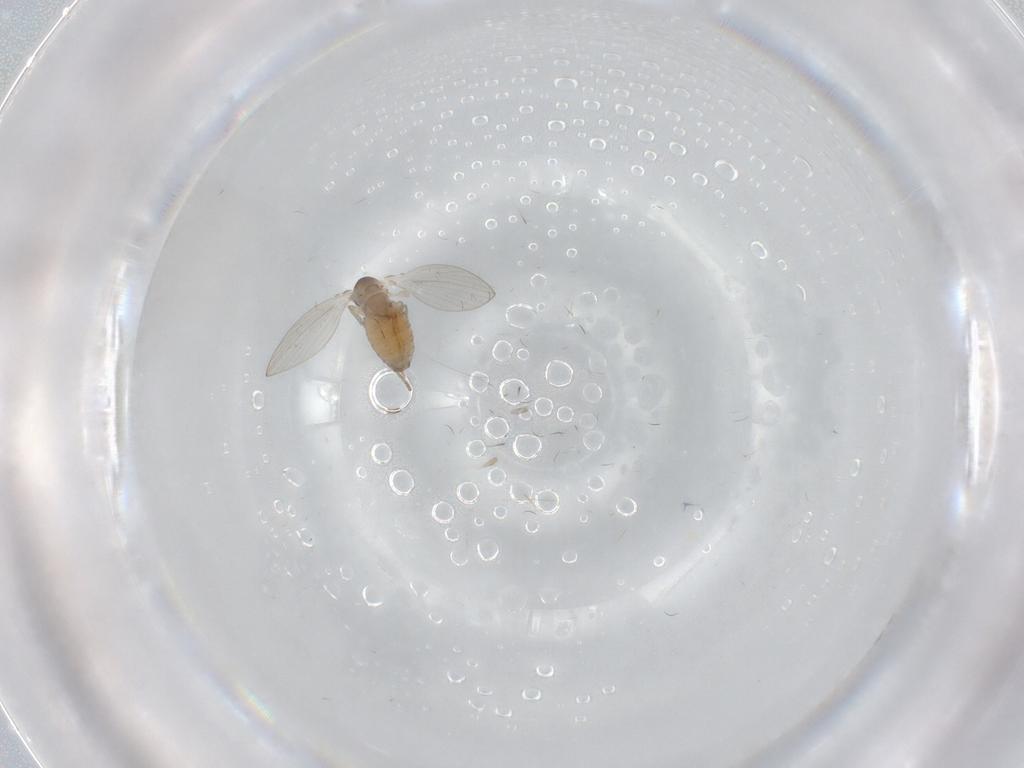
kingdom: Animalia
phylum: Arthropoda
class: Insecta
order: Diptera
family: Psychodidae
